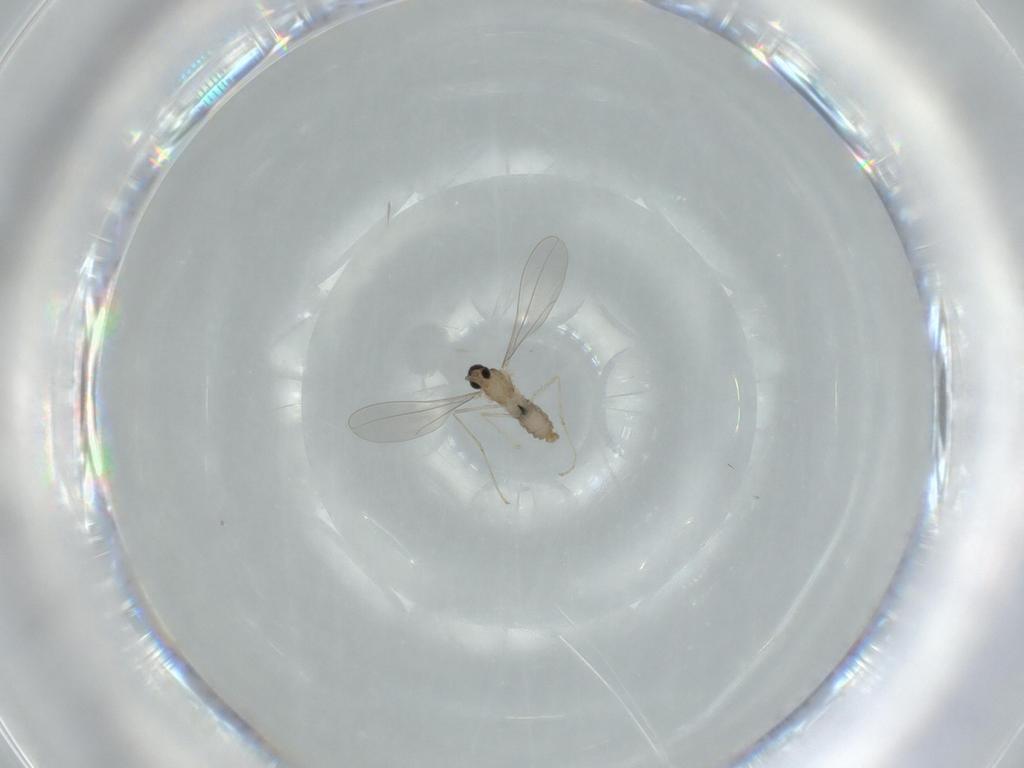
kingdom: Animalia
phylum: Arthropoda
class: Insecta
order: Diptera
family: Cecidomyiidae
